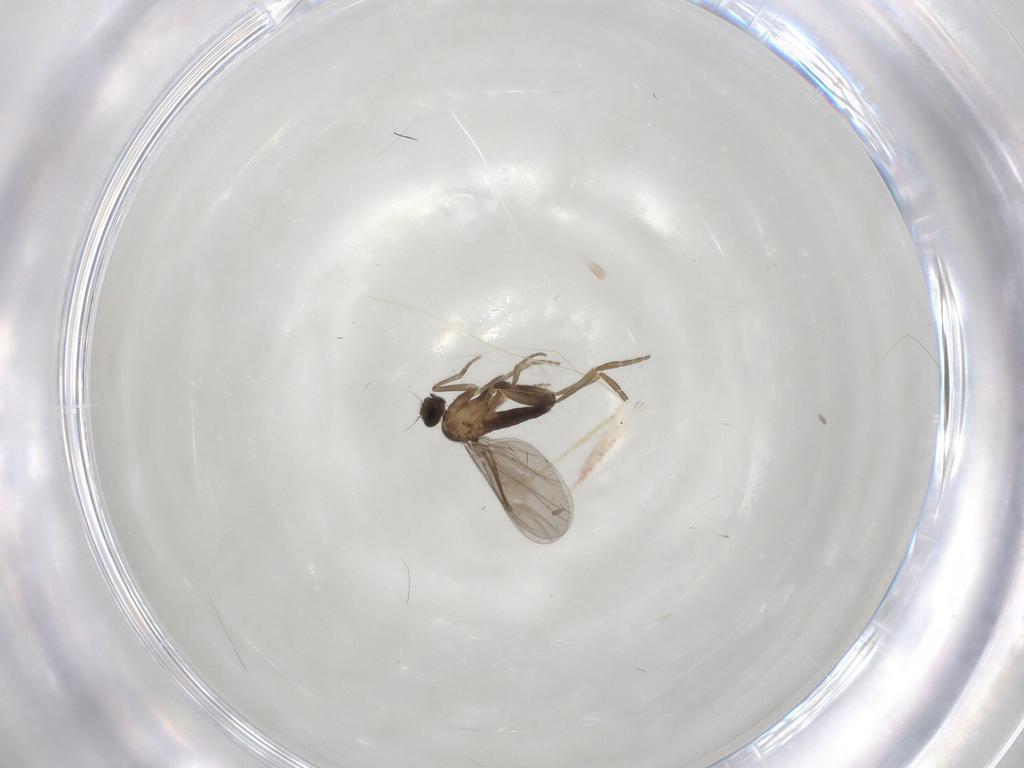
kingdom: Animalia
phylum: Arthropoda
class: Insecta
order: Diptera
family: Phoridae
